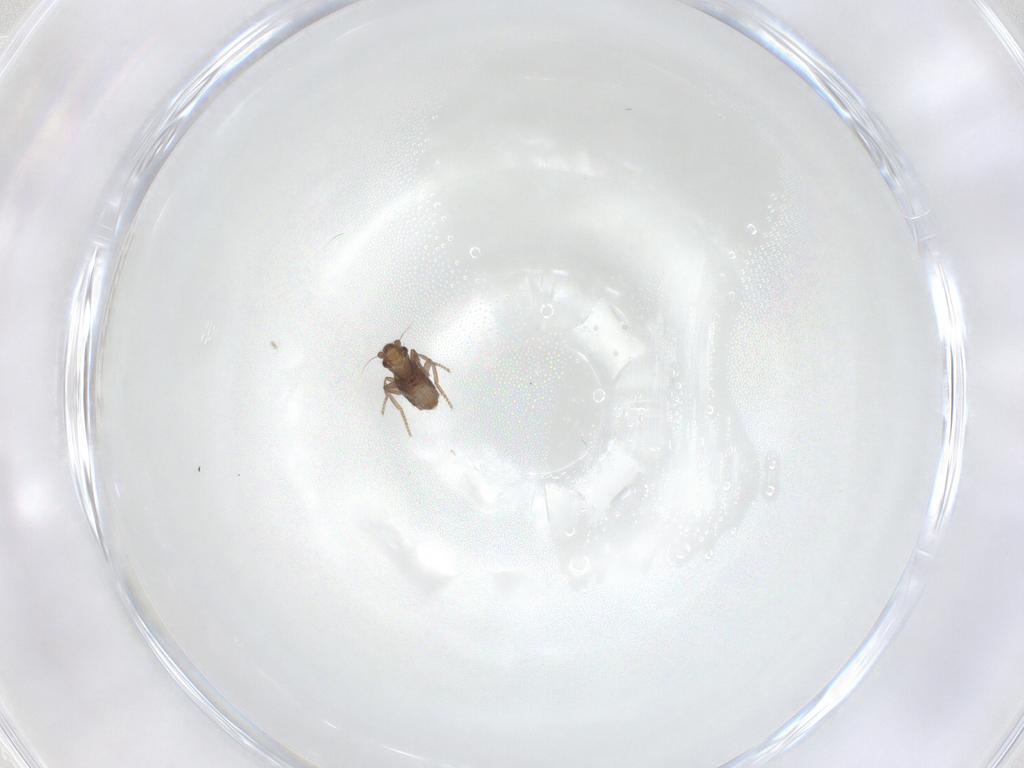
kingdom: Animalia
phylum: Arthropoda
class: Insecta
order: Diptera
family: Phoridae
